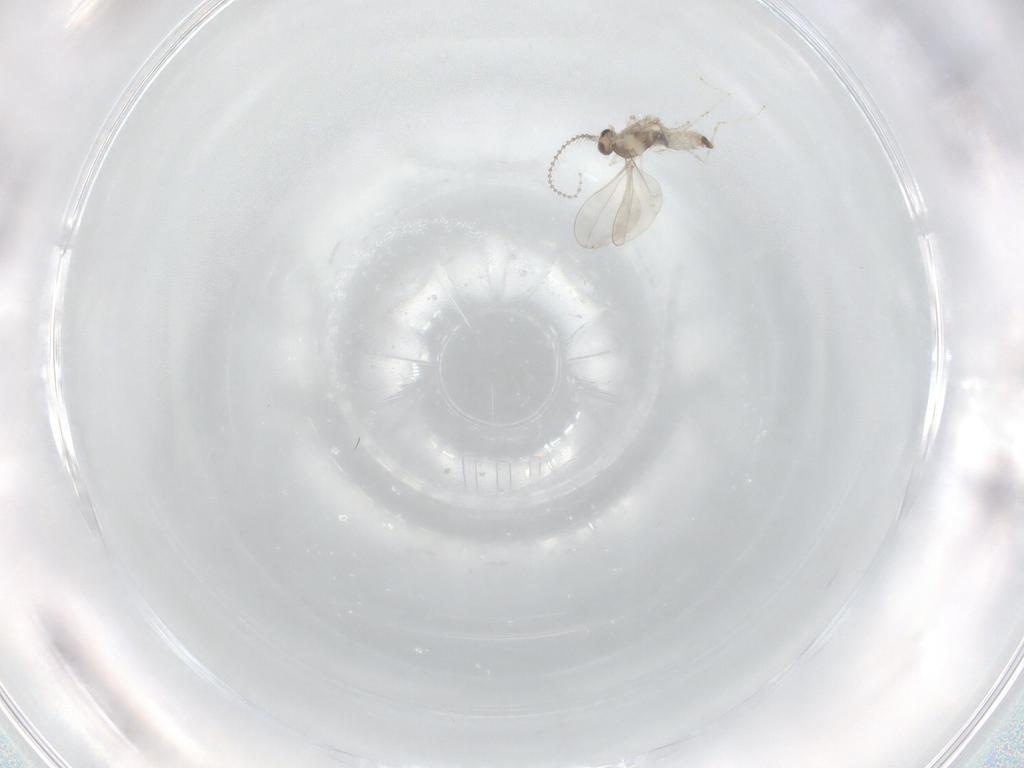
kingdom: Animalia
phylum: Arthropoda
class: Insecta
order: Diptera
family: Cecidomyiidae
